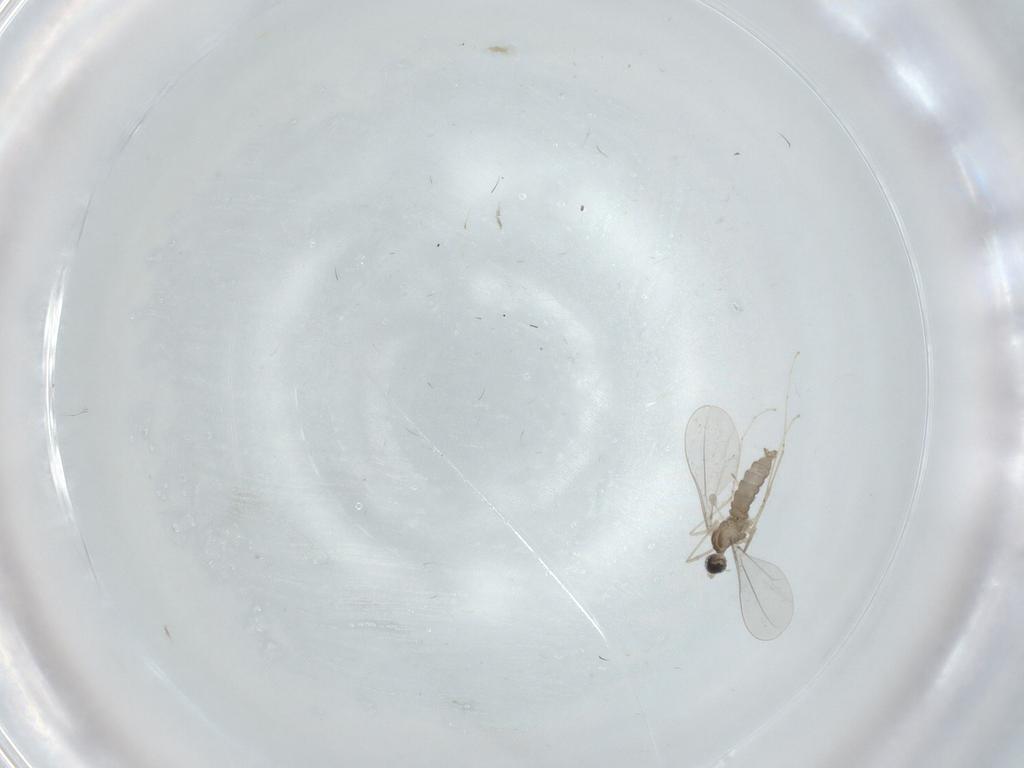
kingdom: Animalia
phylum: Arthropoda
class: Insecta
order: Diptera
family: Cecidomyiidae
